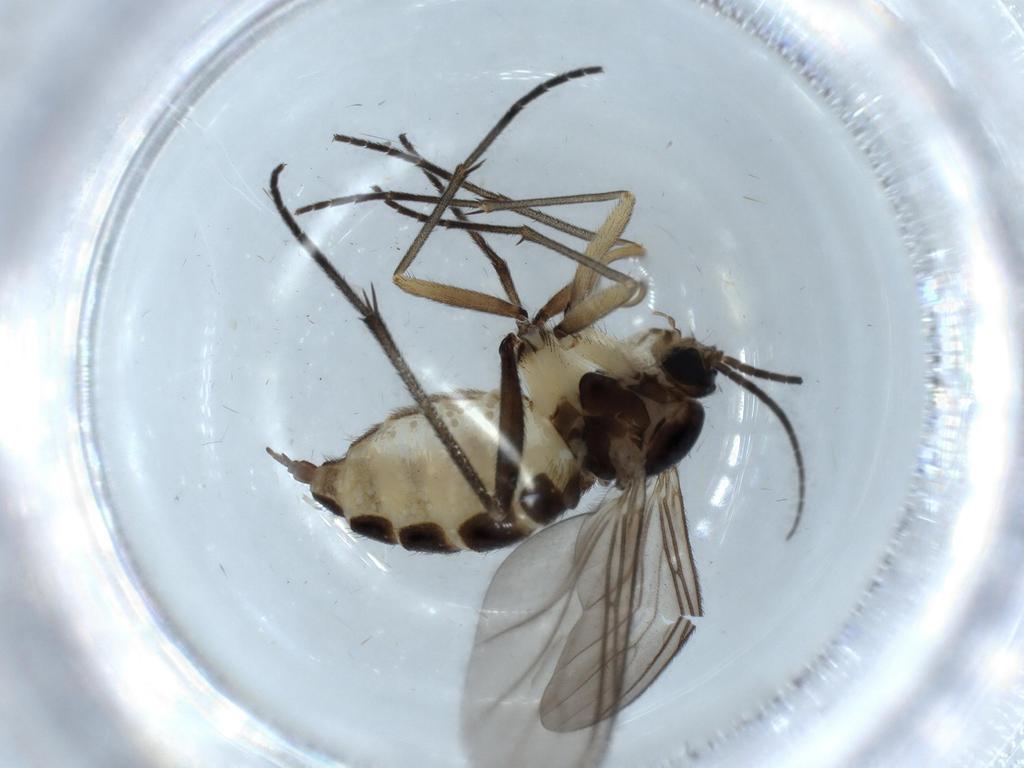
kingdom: Animalia
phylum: Arthropoda
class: Insecta
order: Diptera
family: Sciaridae
